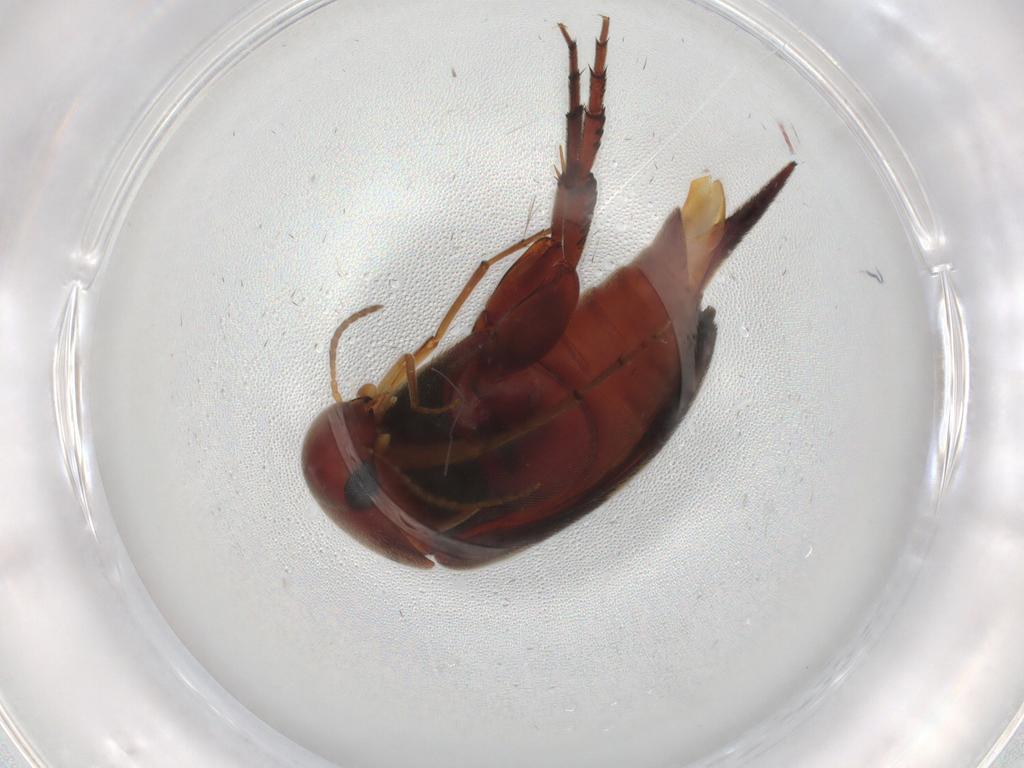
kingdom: Animalia
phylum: Arthropoda
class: Insecta
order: Coleoptera
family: Mordellidae
